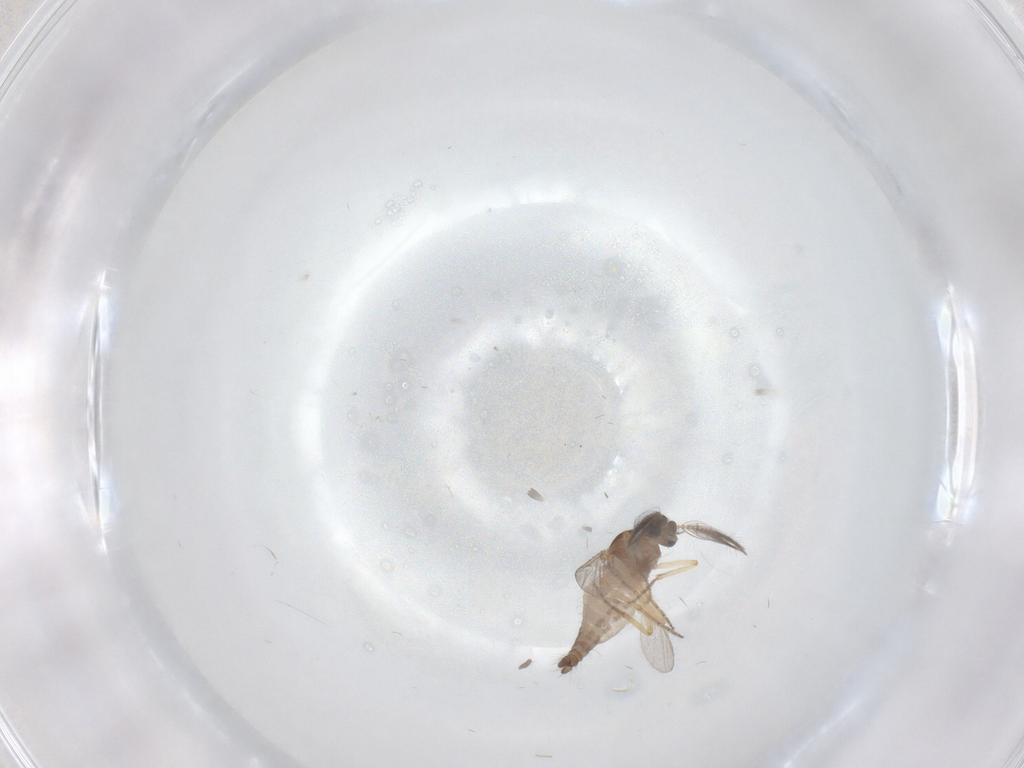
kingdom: Animalia
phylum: Arthropoda
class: Insecta
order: Diptera
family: Ceratopogonidae
